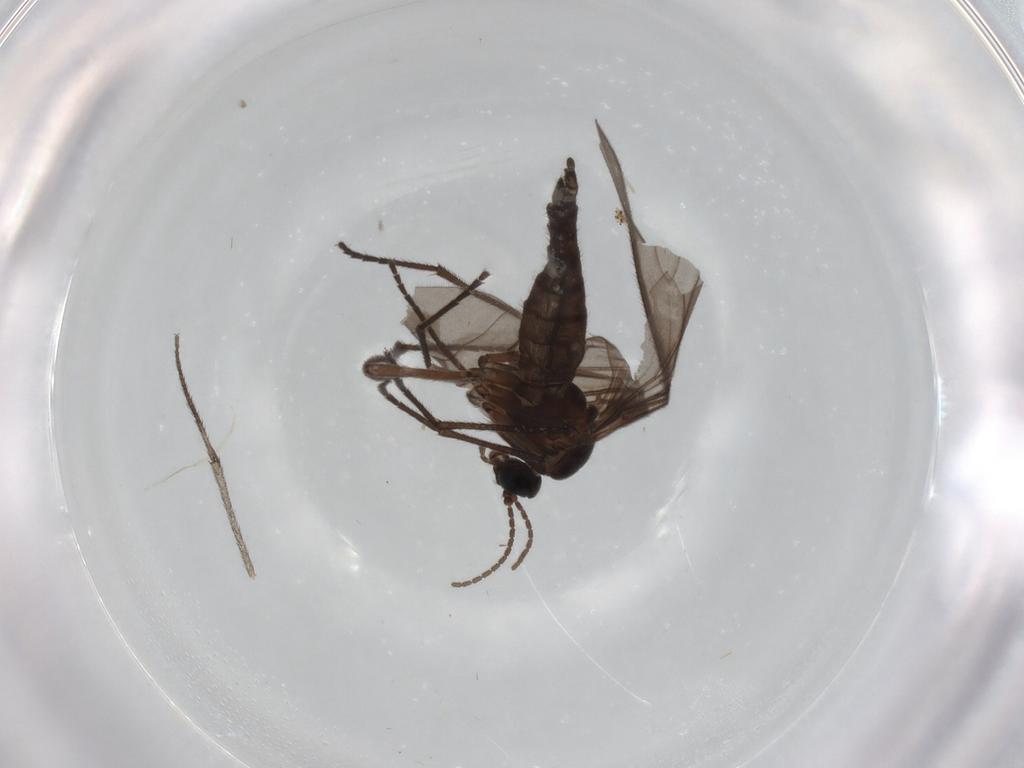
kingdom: Animalia
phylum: Arthropoda
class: Insecta
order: Diptera
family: Sciaridae
